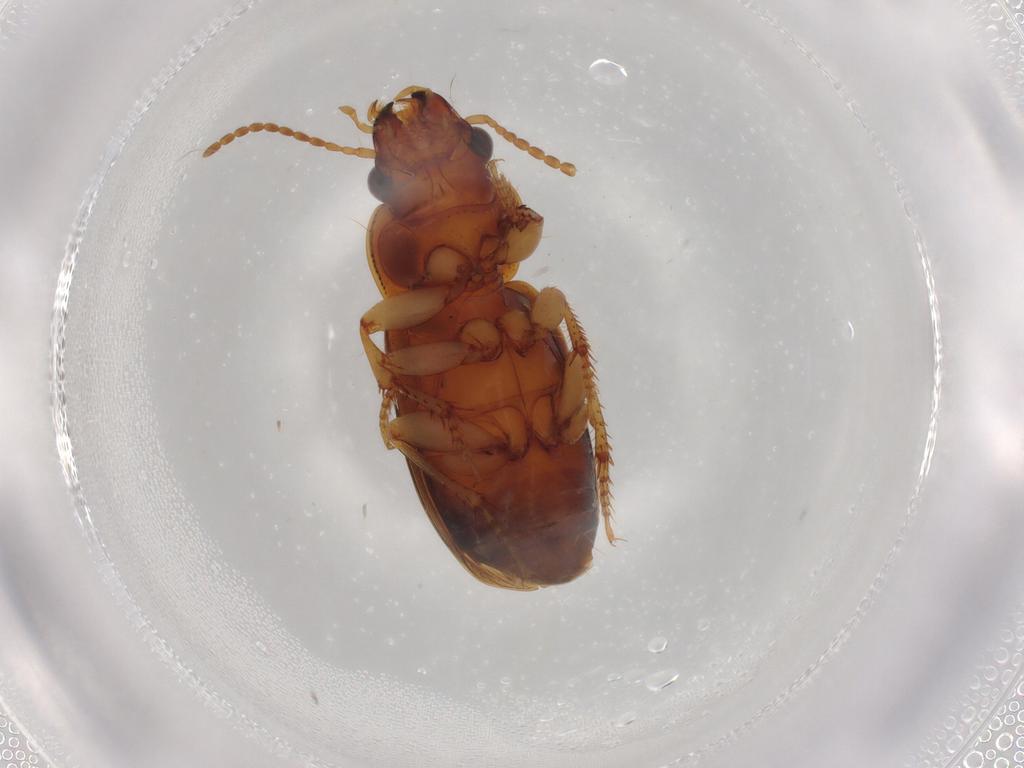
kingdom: Animalia
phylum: Arthropoda
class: Insecta
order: Coleoptera
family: Carabidae
